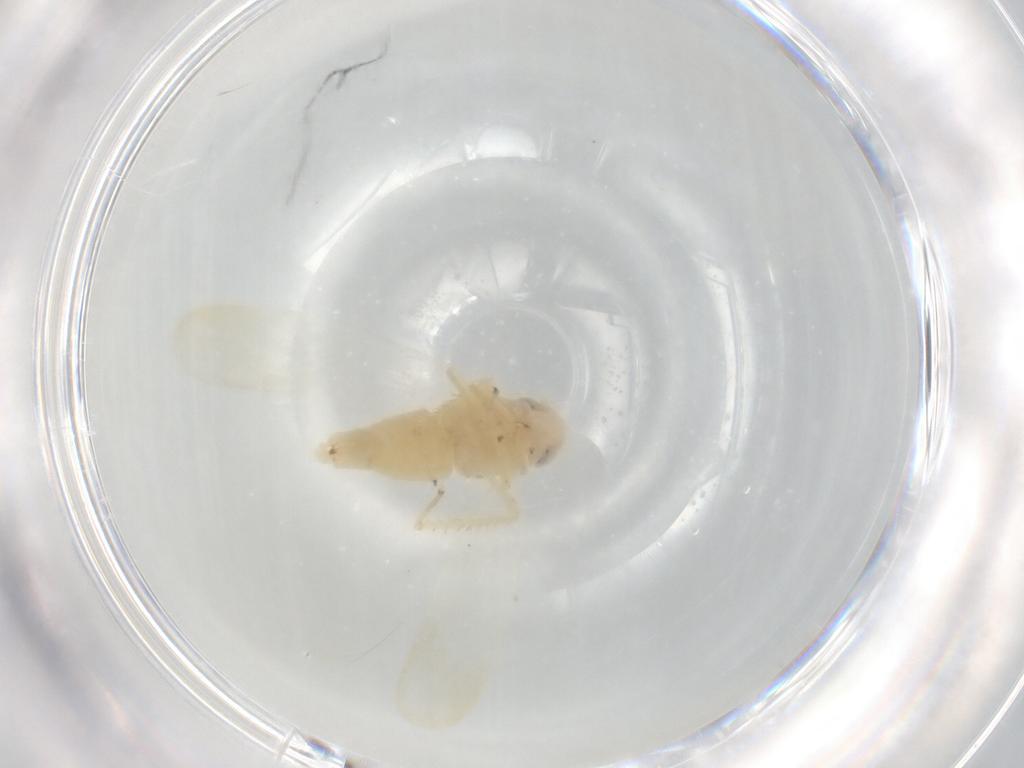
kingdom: Animalia
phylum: Arthropoda
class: Insecta
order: Hemiptera
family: Cicadellidae
